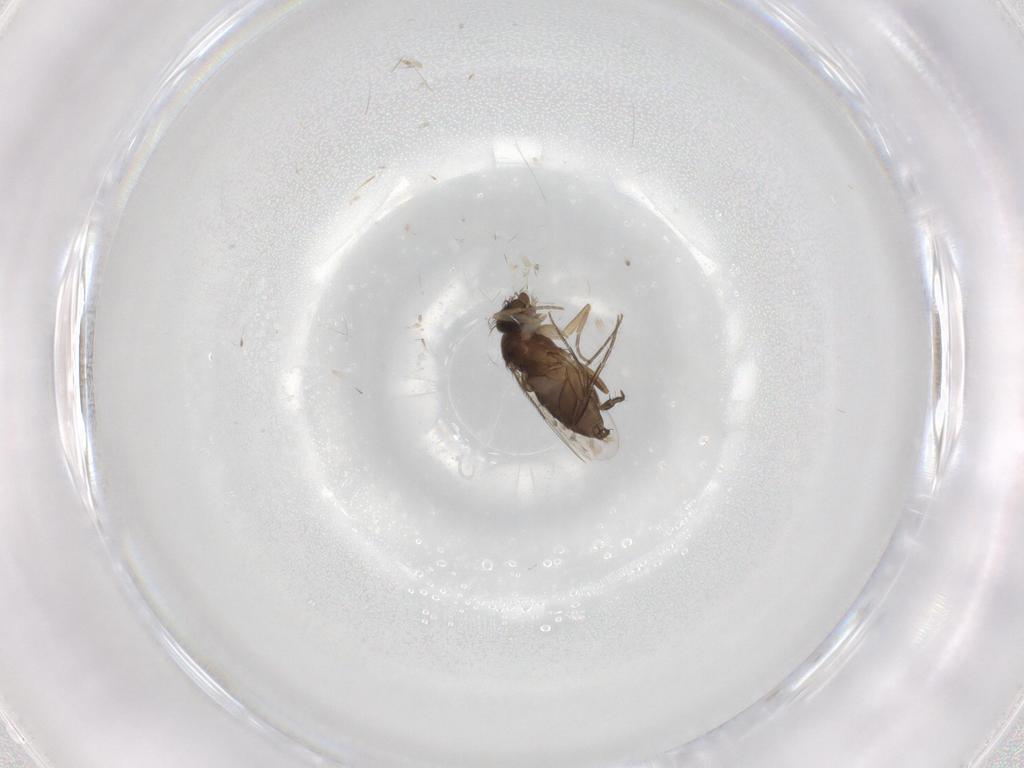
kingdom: Animalia
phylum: Arthropoda
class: Insecta
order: Diptera
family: Phoridae
